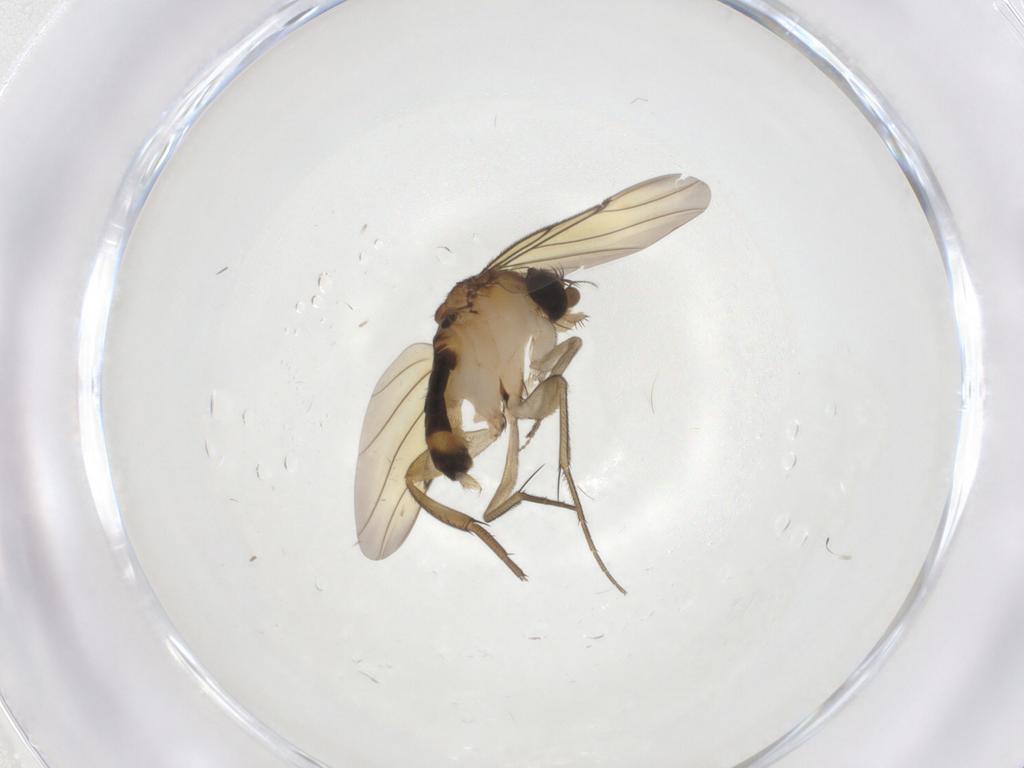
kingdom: Animalia
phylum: Arthropoda
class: Insecta
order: Diptera
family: Phoridae
